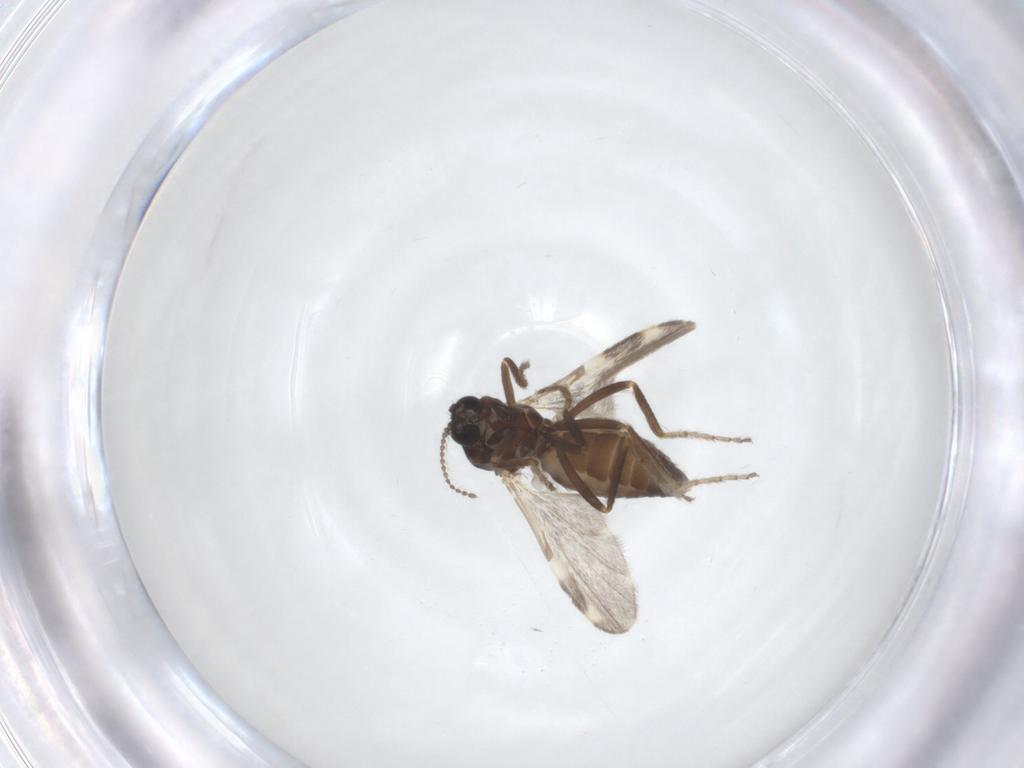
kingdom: Animalia
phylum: Arthropoda
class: Insecta
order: Diptera
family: Ceratopogonidae
